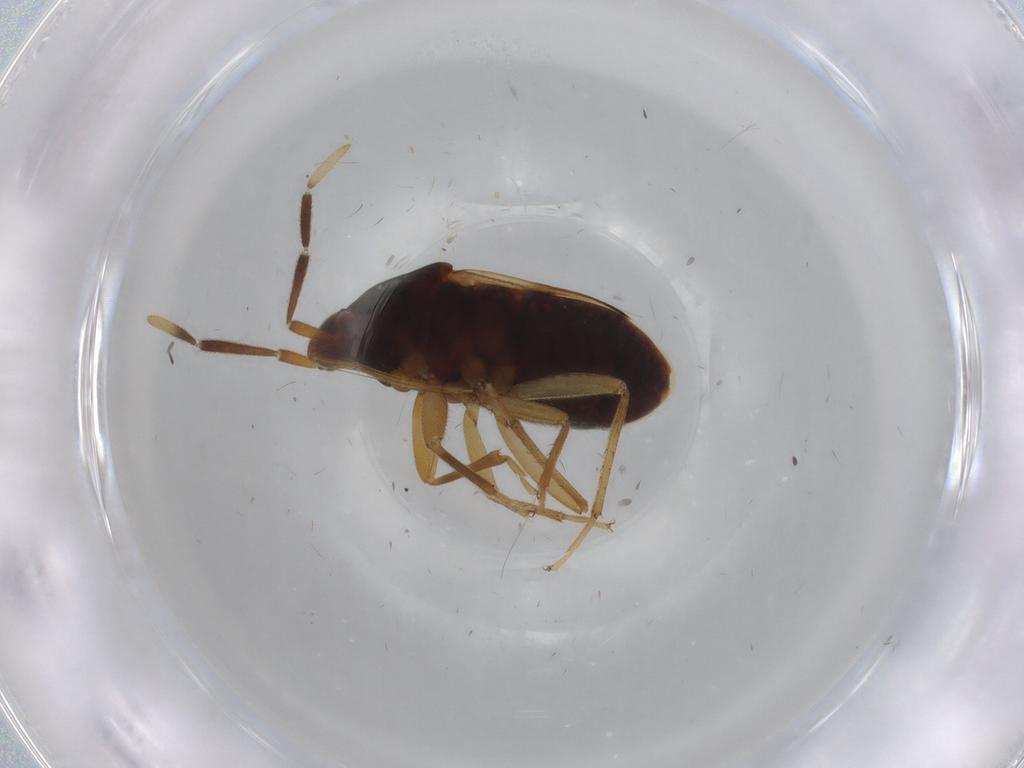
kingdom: Animalia
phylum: Arthropoda
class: Insecta
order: Hemiptera
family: Rhyparochromidae
